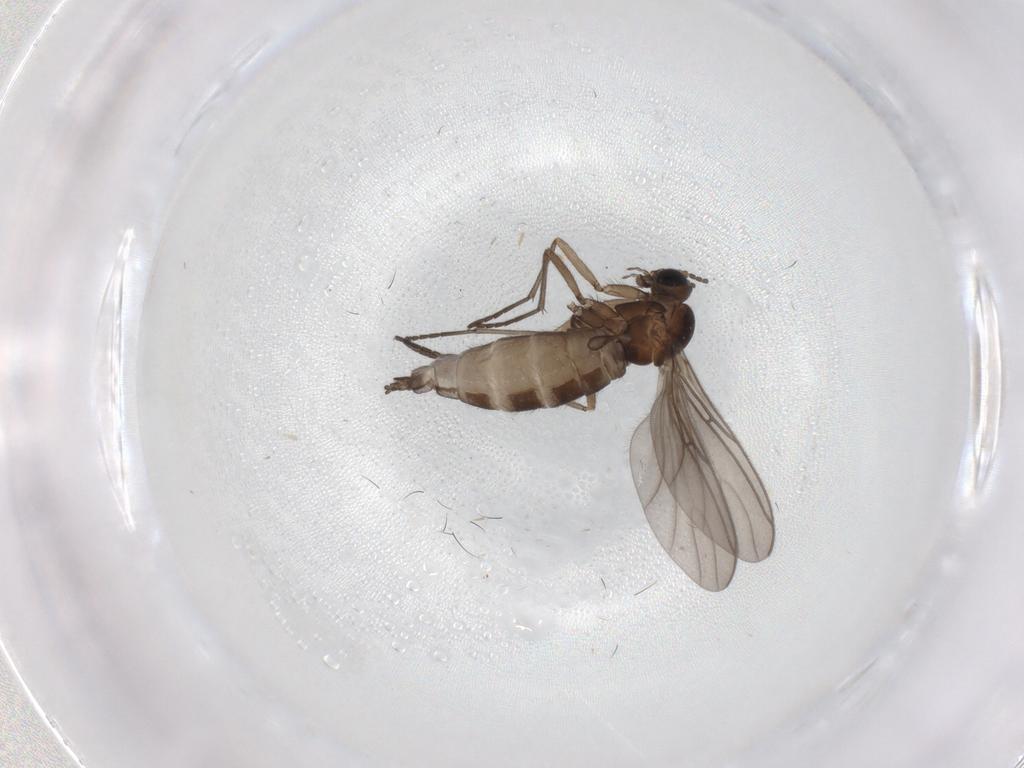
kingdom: Animalia
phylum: Arthropoda
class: Insecta
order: Diptera
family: Sciaridae
